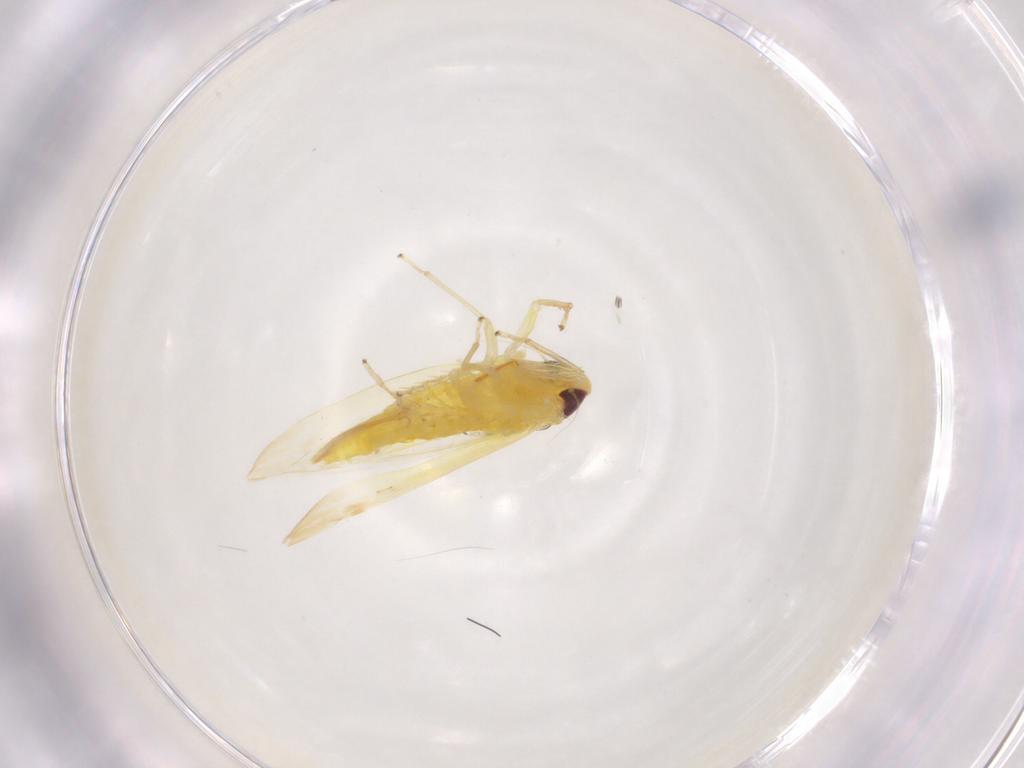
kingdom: Animalia
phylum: Arthropoda
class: Insecta
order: Hemiptera
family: Cicadellidae
